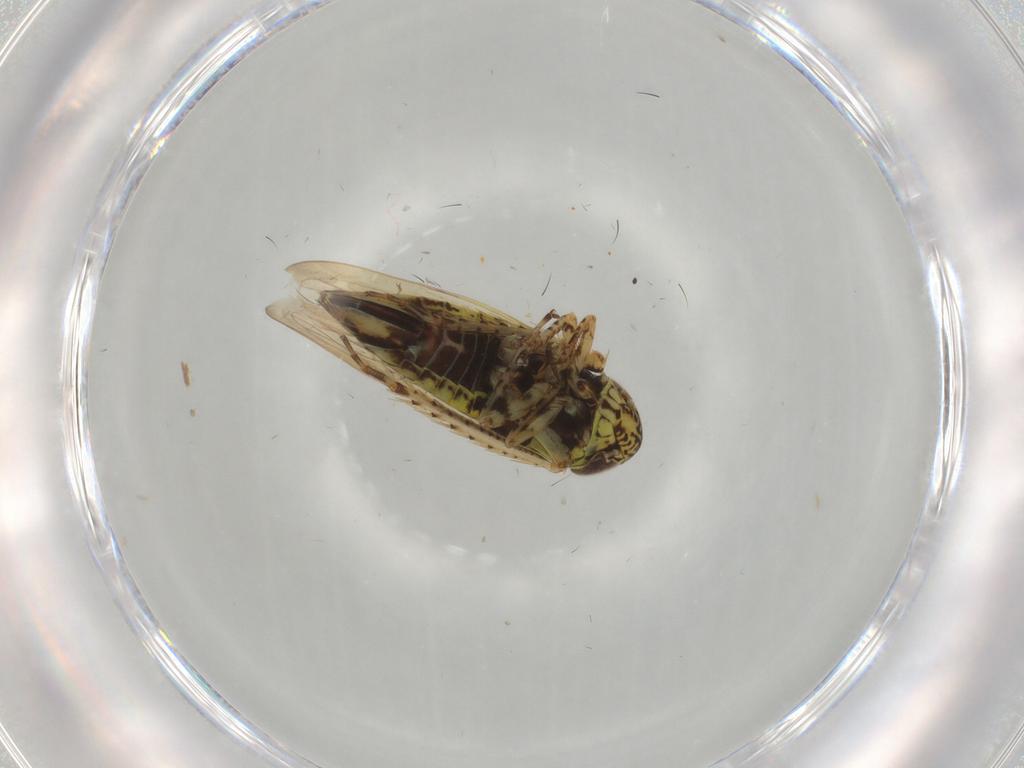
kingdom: Animalia
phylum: Arthropoda
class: Insecta
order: Hemiptera
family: Cicadellidae
